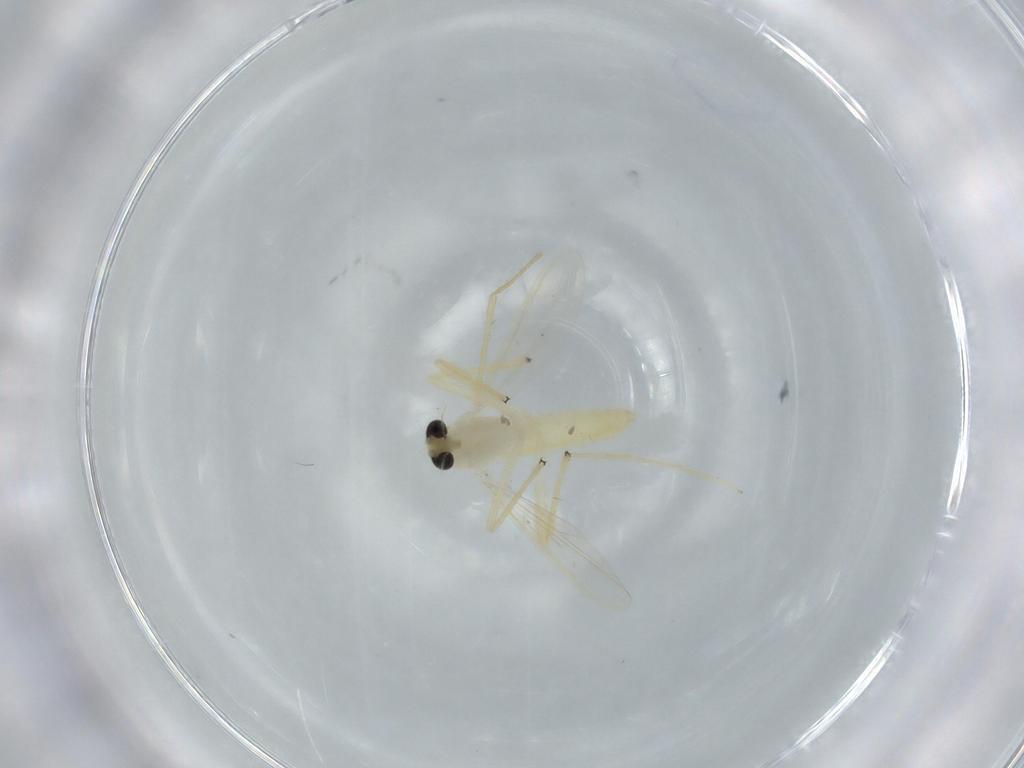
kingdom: Animalia
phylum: Arthropoda
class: Insecta
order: Diptera
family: Chironomidae
